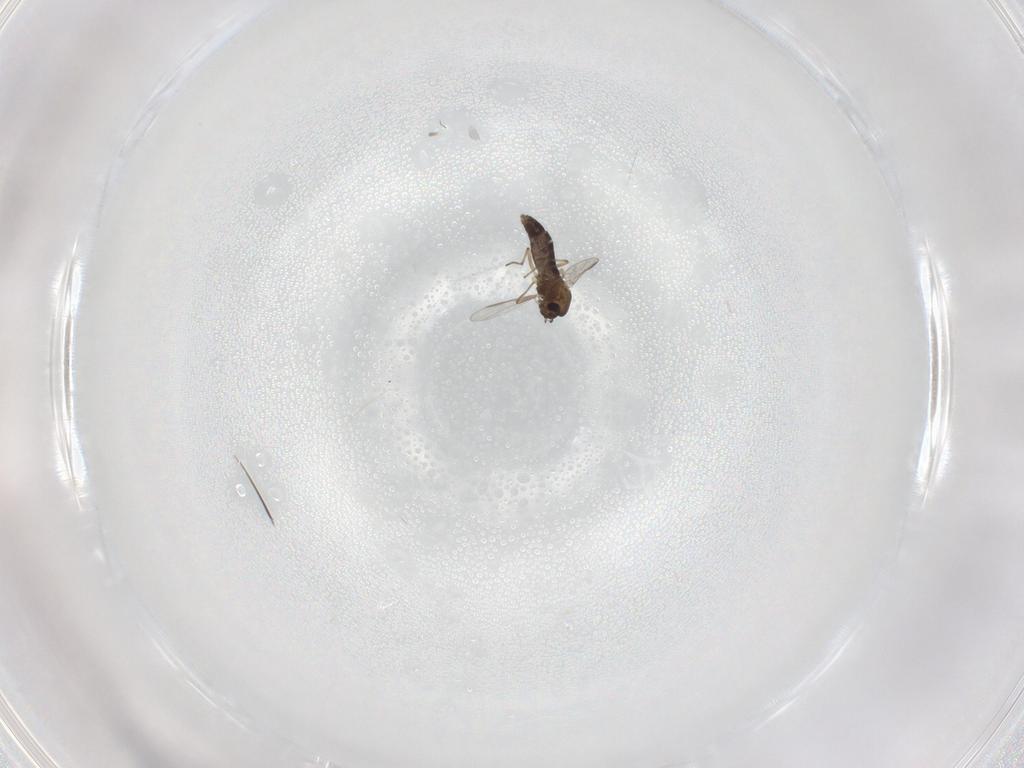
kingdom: Animalia
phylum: Arthropoda
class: Insecta
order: Diptera
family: Chironomidae
